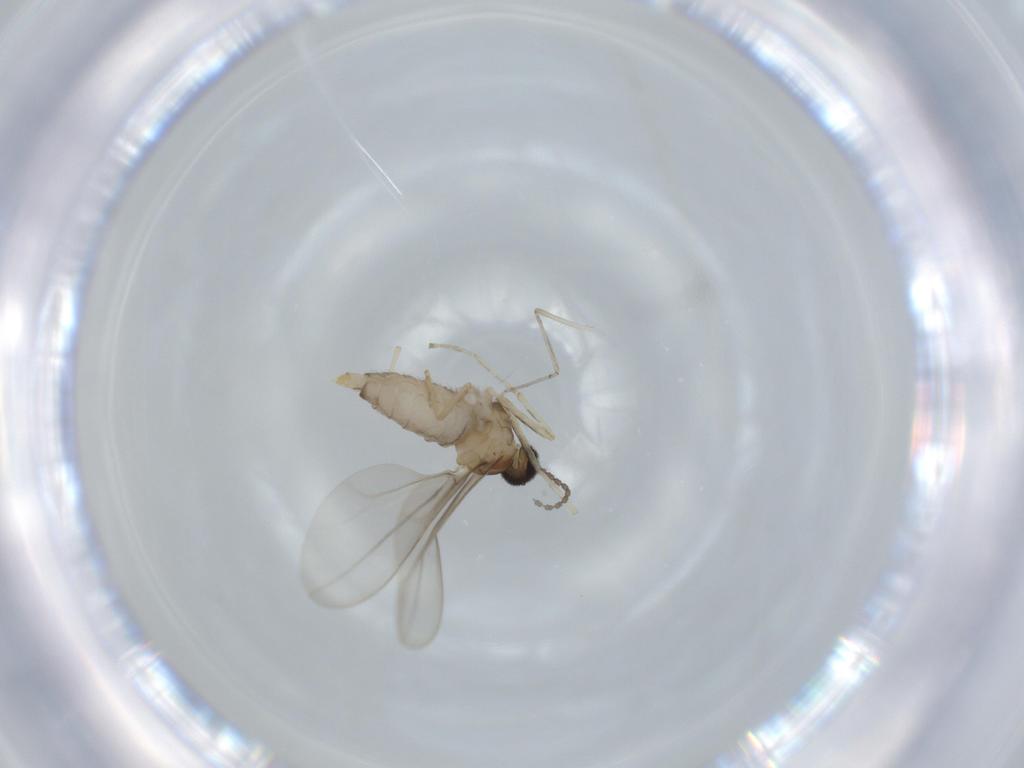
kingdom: Animalia
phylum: Arthropoda
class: Insecta
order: Diptera
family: Cecidomyiidae
